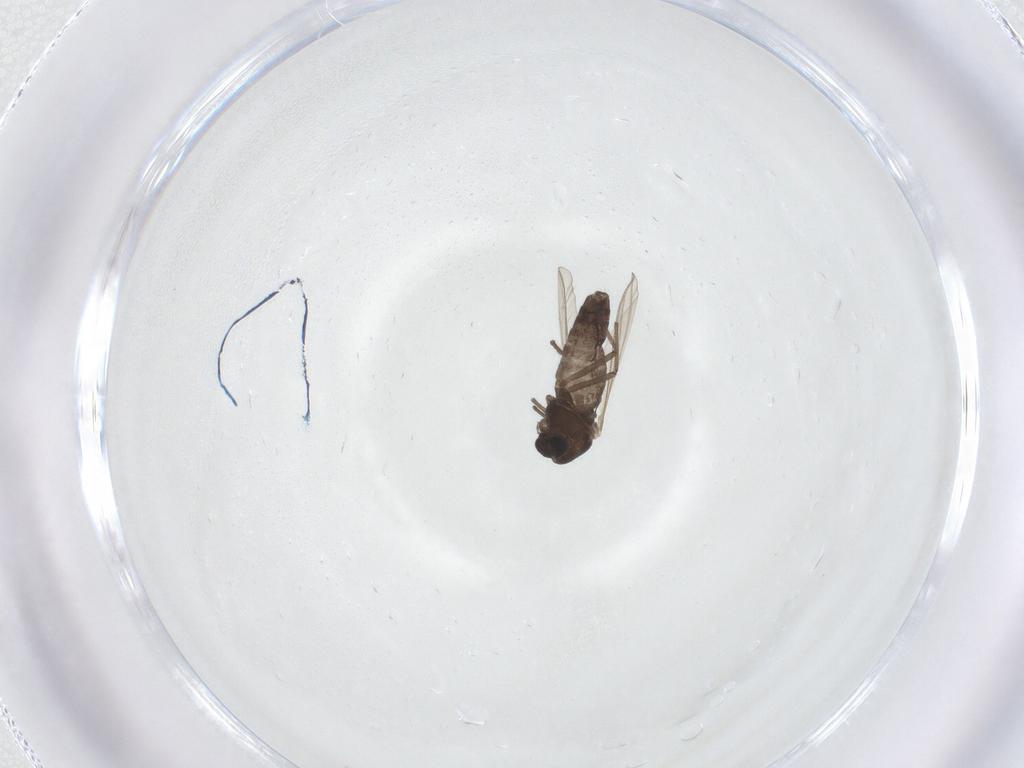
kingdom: Animalia
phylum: Arthropoda
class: Insecta
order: Diptera
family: Chironomidae
